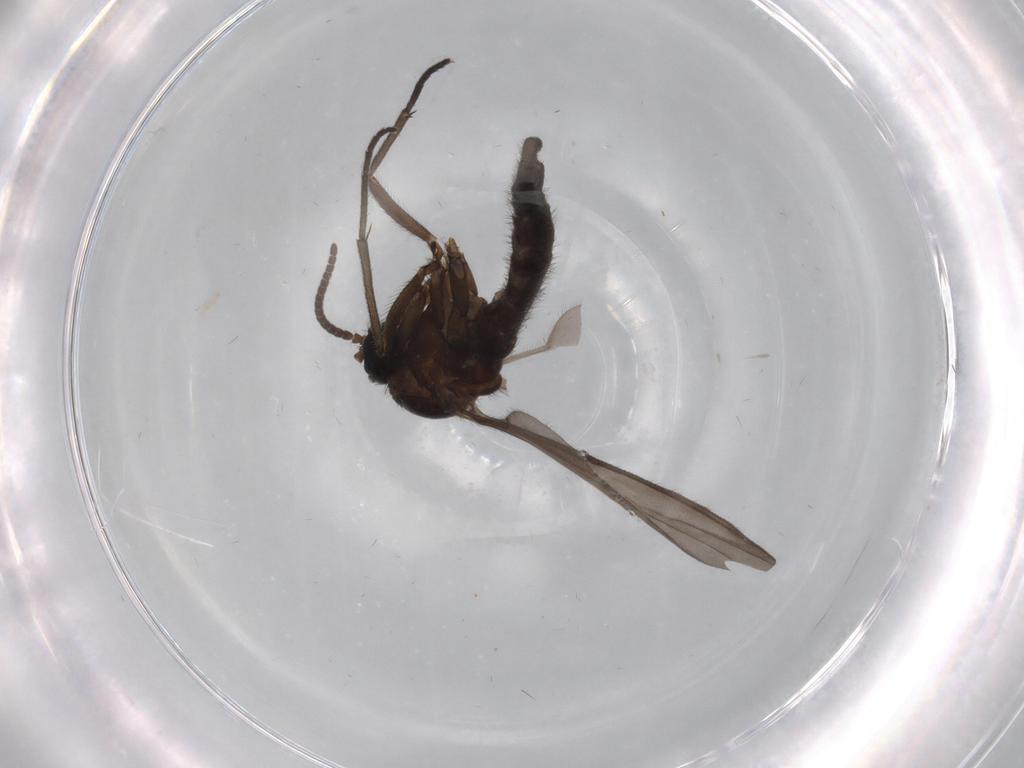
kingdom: Animalia
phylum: Arthropoda
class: Insecta
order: Diptera
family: Sciaridae
